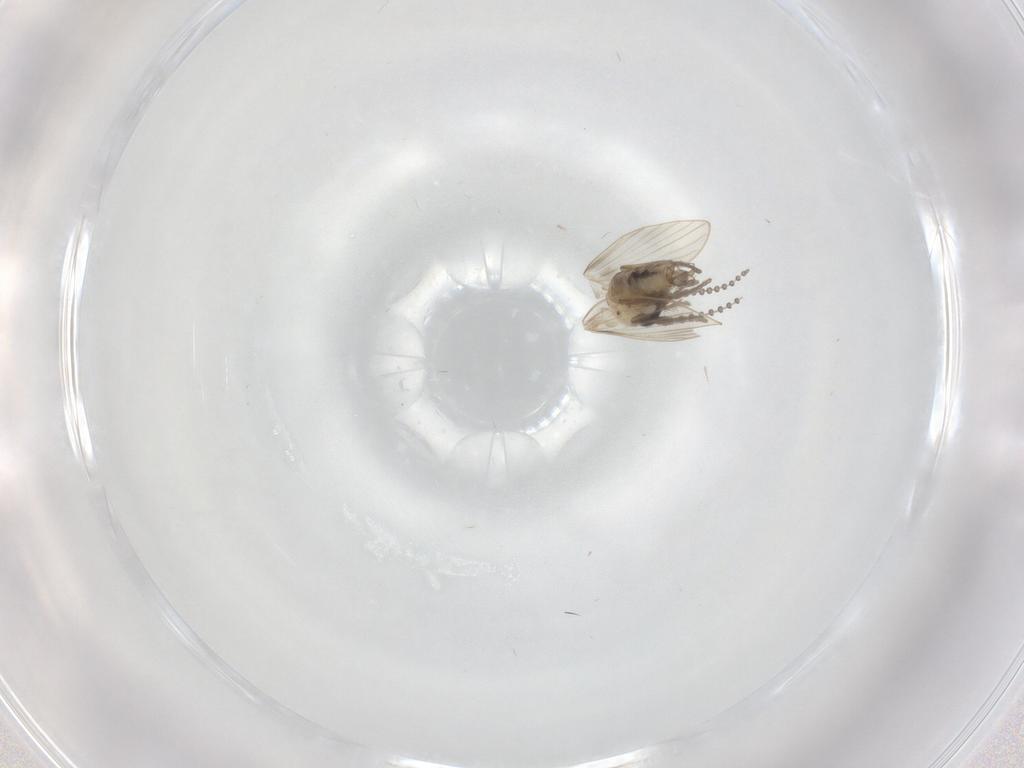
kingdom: Animalia
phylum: Arthropoda
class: Insecta
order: Diptera
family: Psychodidae
